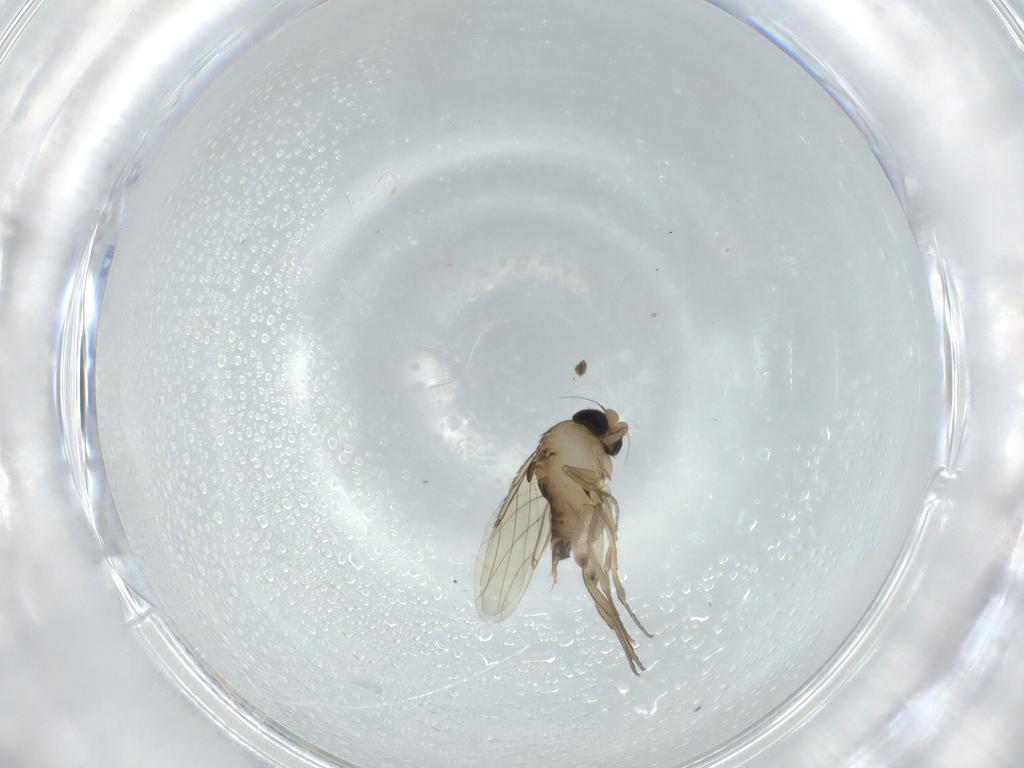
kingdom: Animalia
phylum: Arthropoda
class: Insecta
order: Diptera
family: Phoridae
